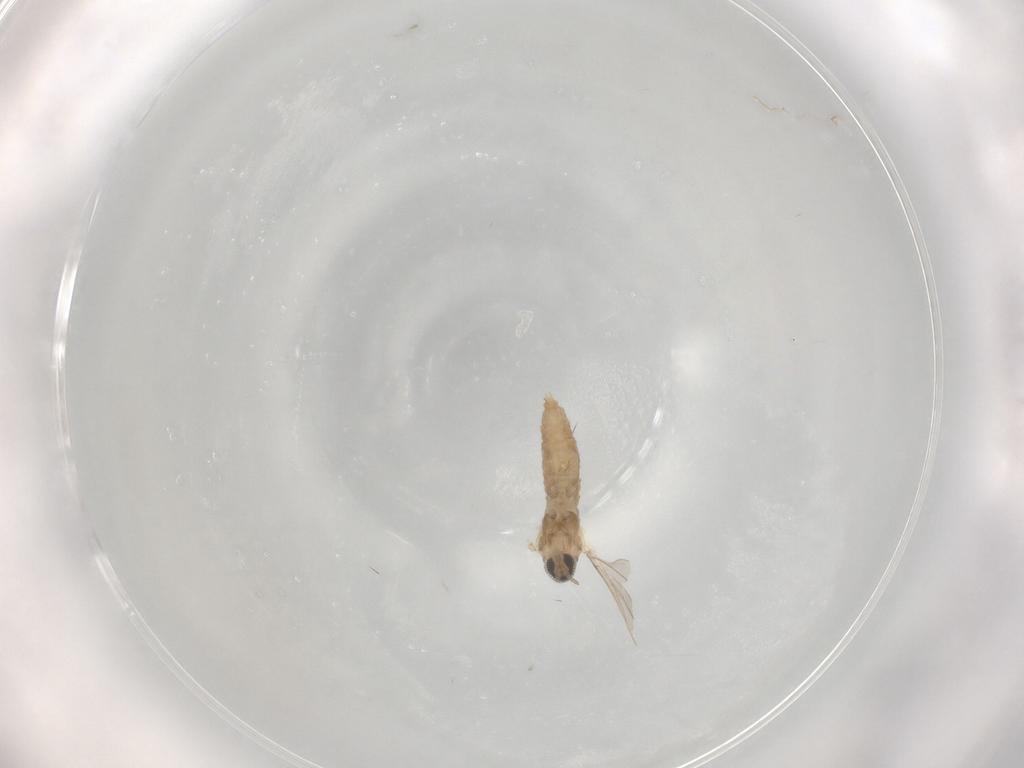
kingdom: Animalia
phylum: Arthropoda
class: Insecta
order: Diptera
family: Cecidomyiidae
